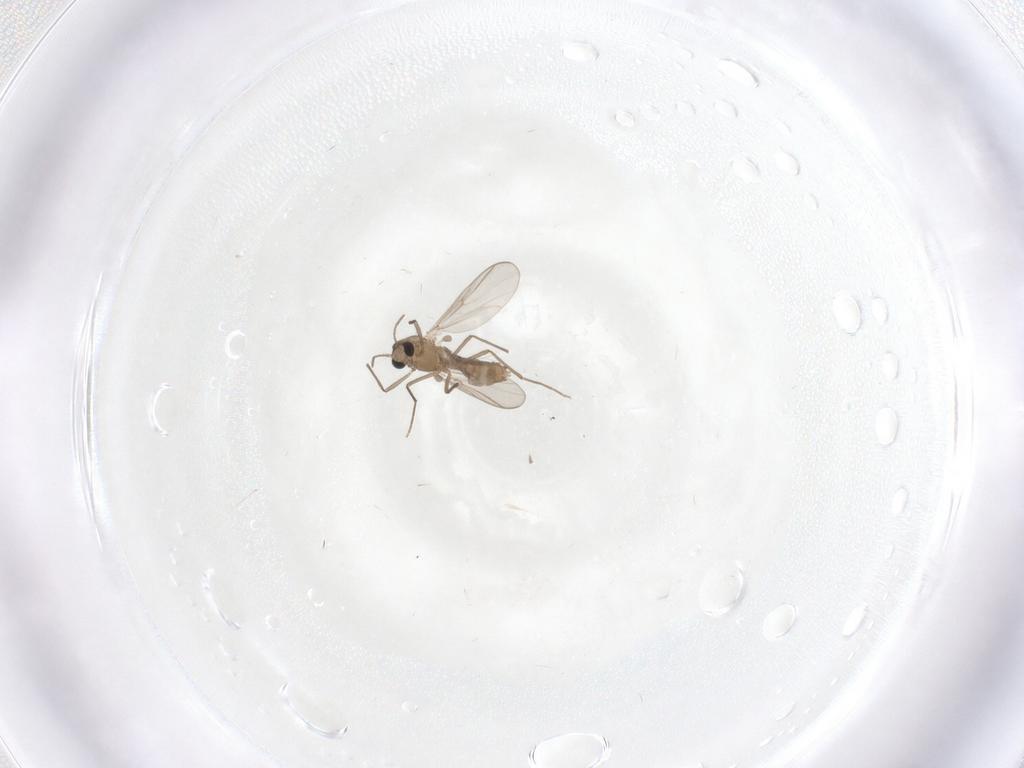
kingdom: Animalia
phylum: Arthropoda
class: Insecta
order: Diptera
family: Chironomidae
